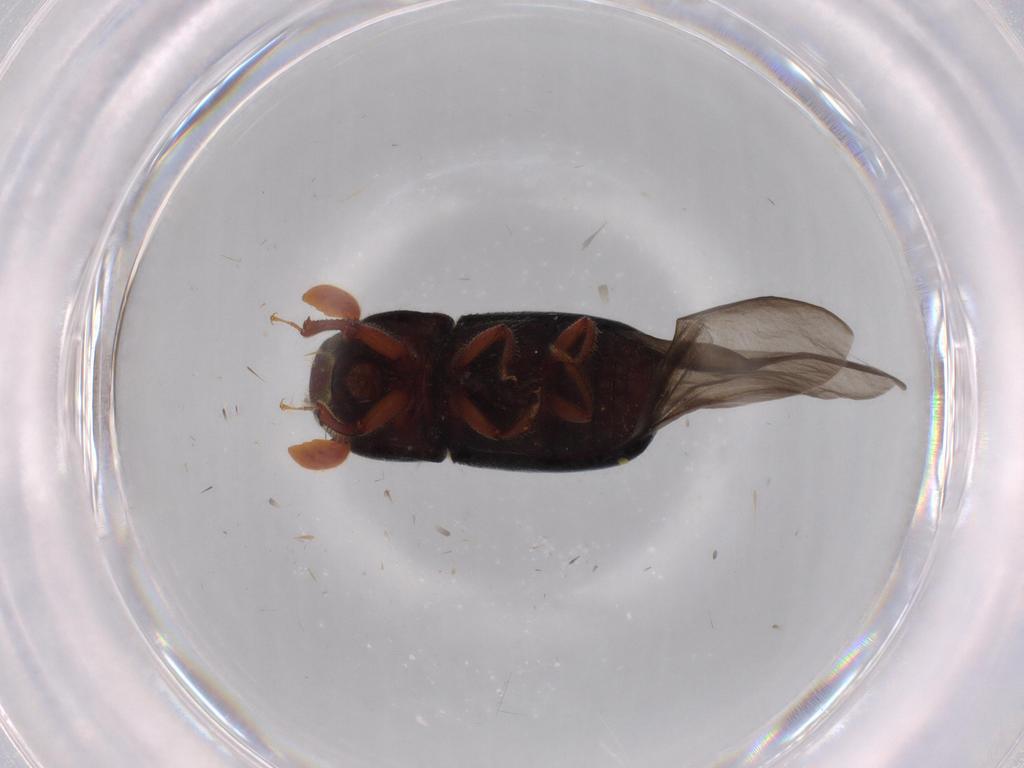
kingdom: Animalia
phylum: Arthropoda
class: Insecta
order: Coleoptera
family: Curculionidae
